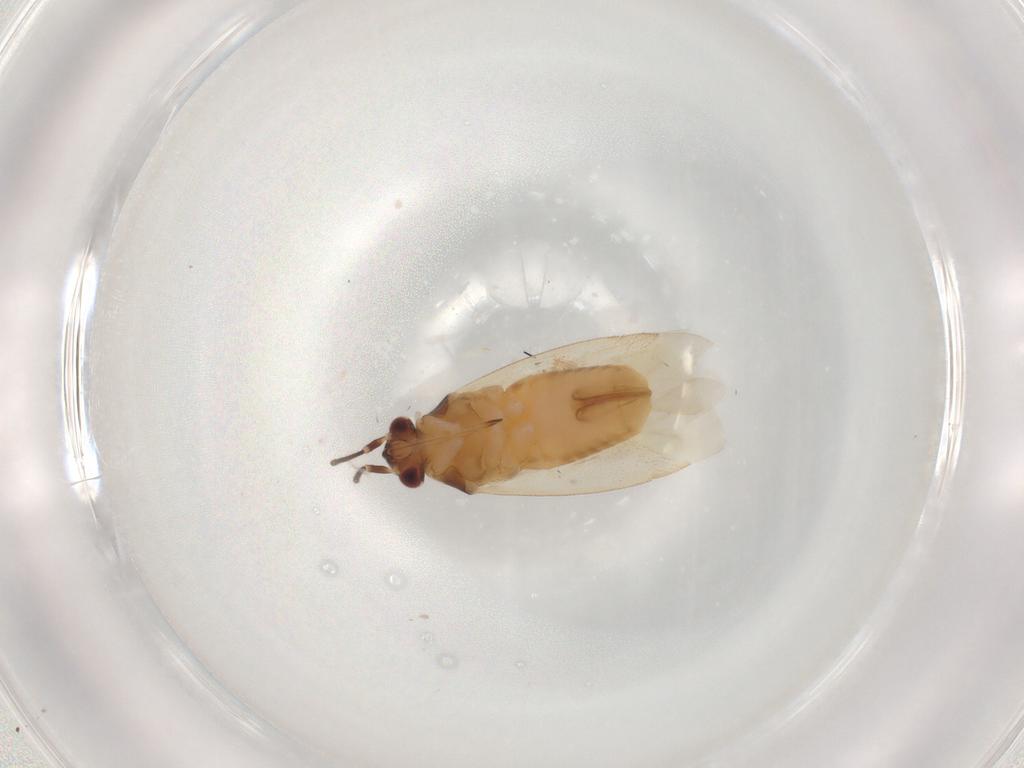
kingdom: Animalia
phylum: Arthropoda
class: Insecta
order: Hemiptera
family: Miridae
